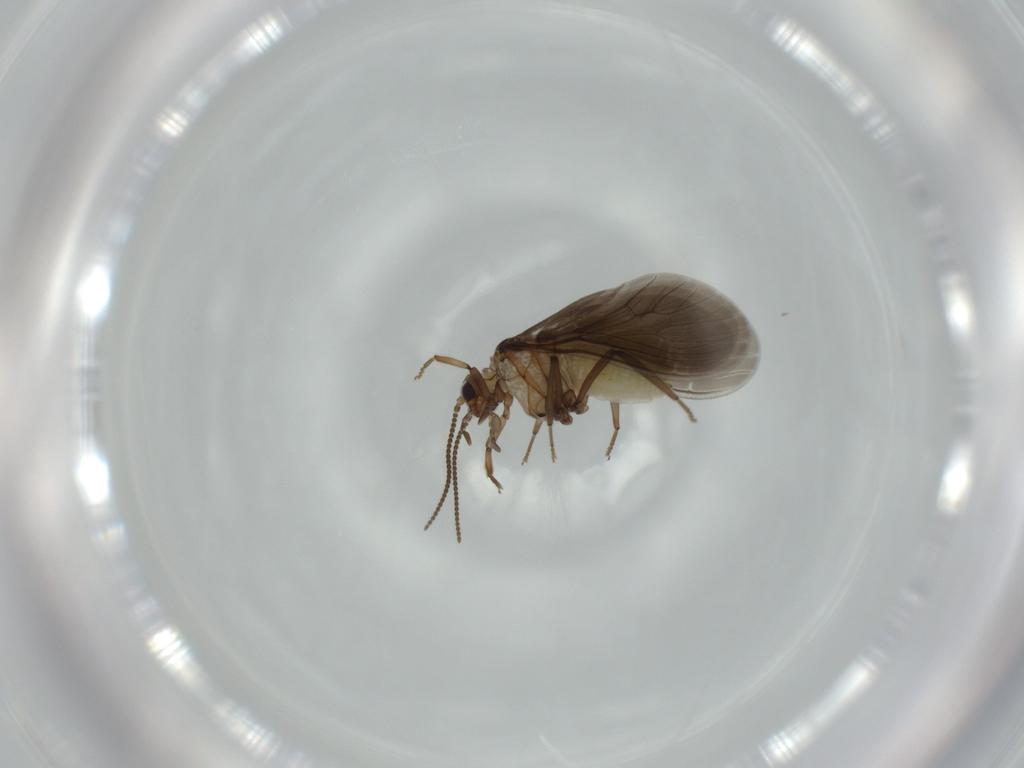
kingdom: Animalia
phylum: Arthropoda
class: Insecta
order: Neuroptera
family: Coniopterygidae
